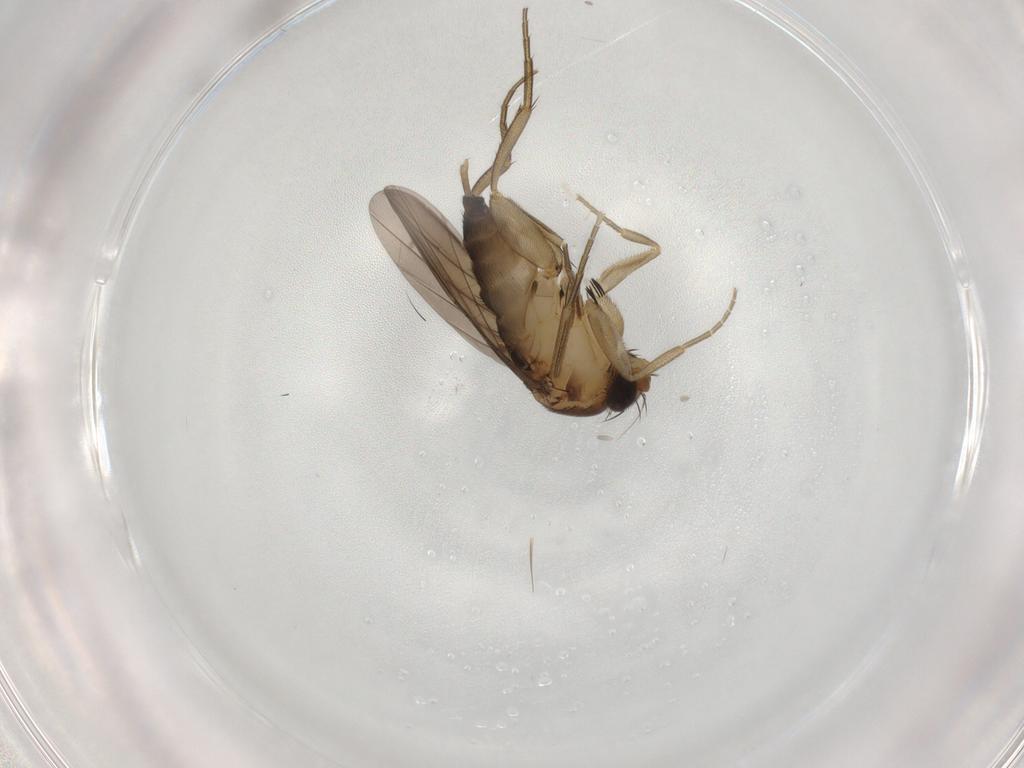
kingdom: Animalia
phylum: Arthropoda
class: Insecta
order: Diptera
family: Phoridae
